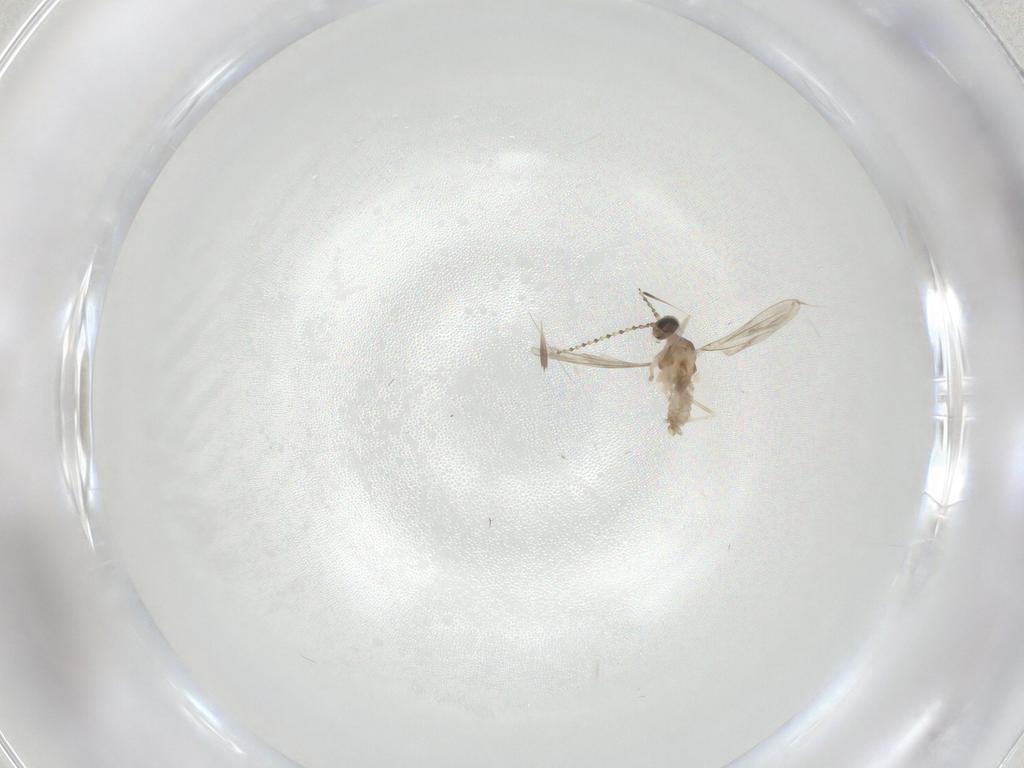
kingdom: Animalia
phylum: Arthropoda
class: Insecta
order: Diptera
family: Cecidomyiidae
